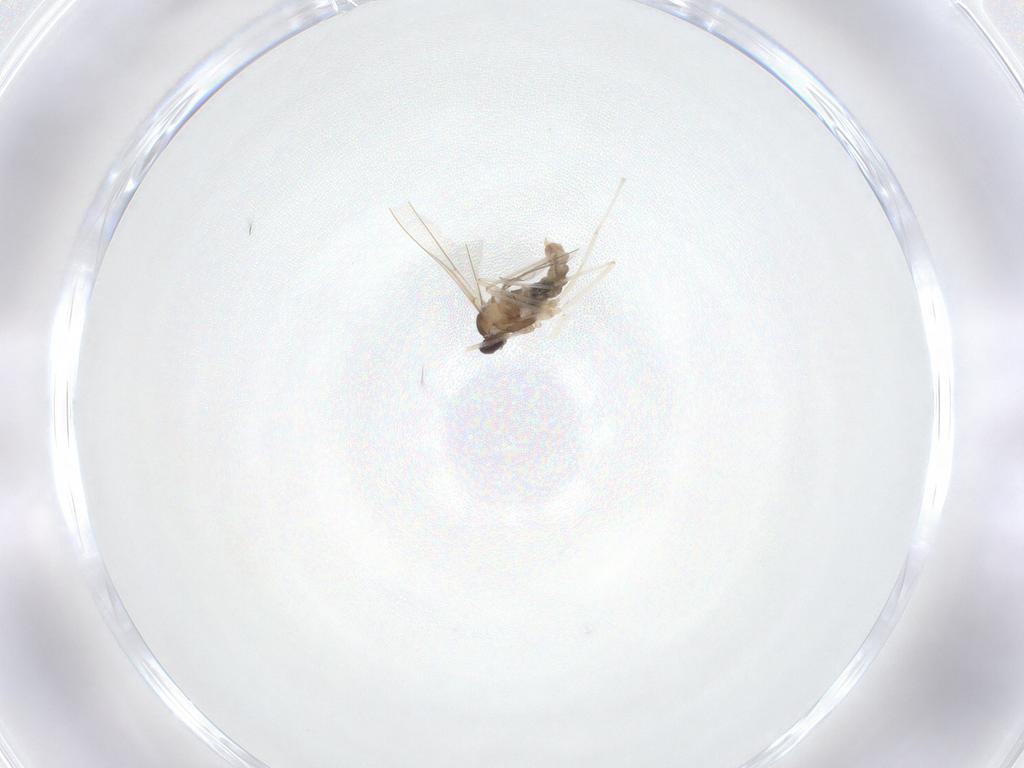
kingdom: Animalia
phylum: Arthropoda
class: Insecta
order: Diptera
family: Cecidomyiidae
